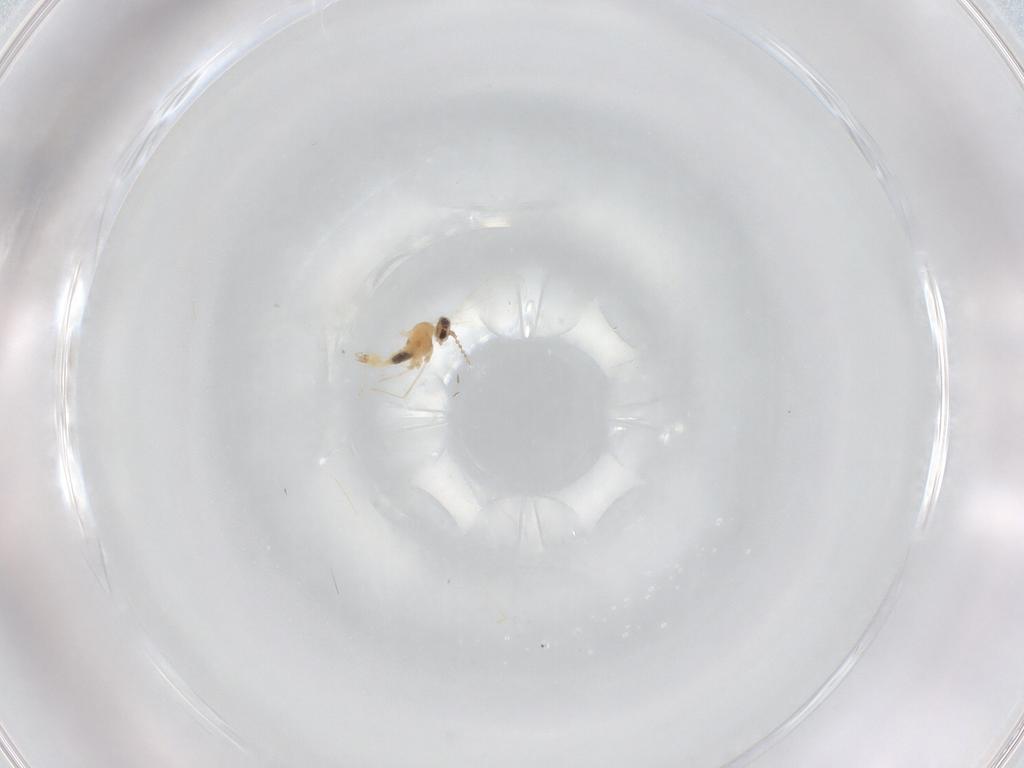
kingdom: Animalia
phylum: Arthropoda
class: Insecta
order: Diptera
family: Cecidomyiidae
